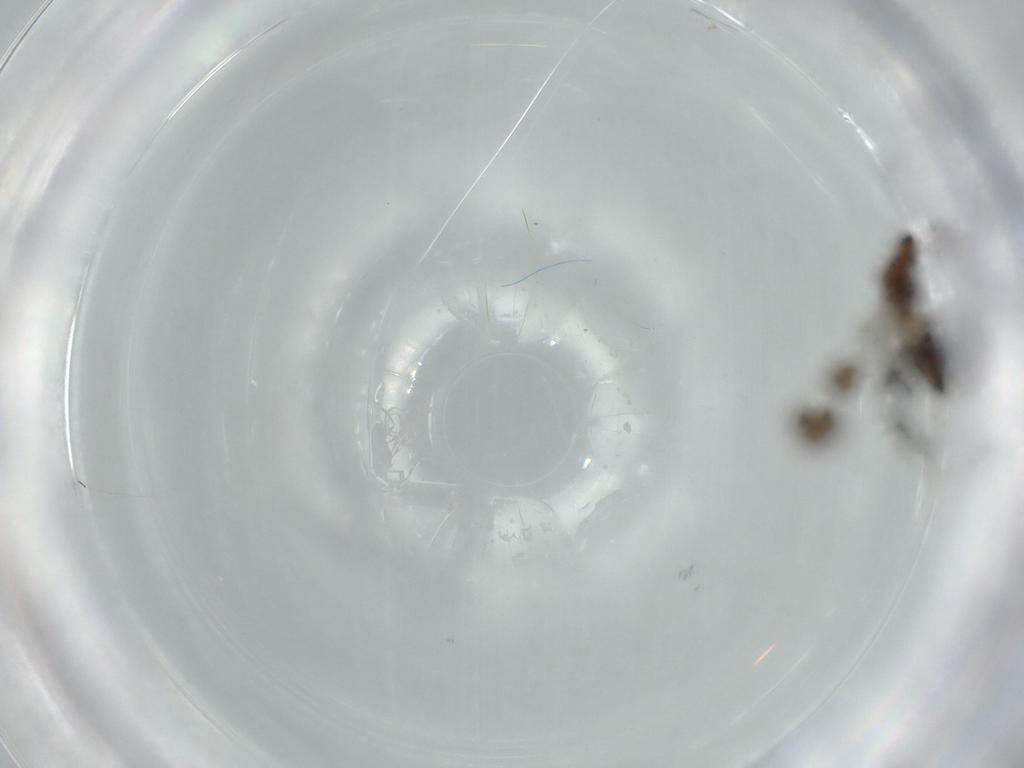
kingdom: Animalia
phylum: Arthropoda
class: Insecta
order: Hymenoptera
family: Mymaridae
